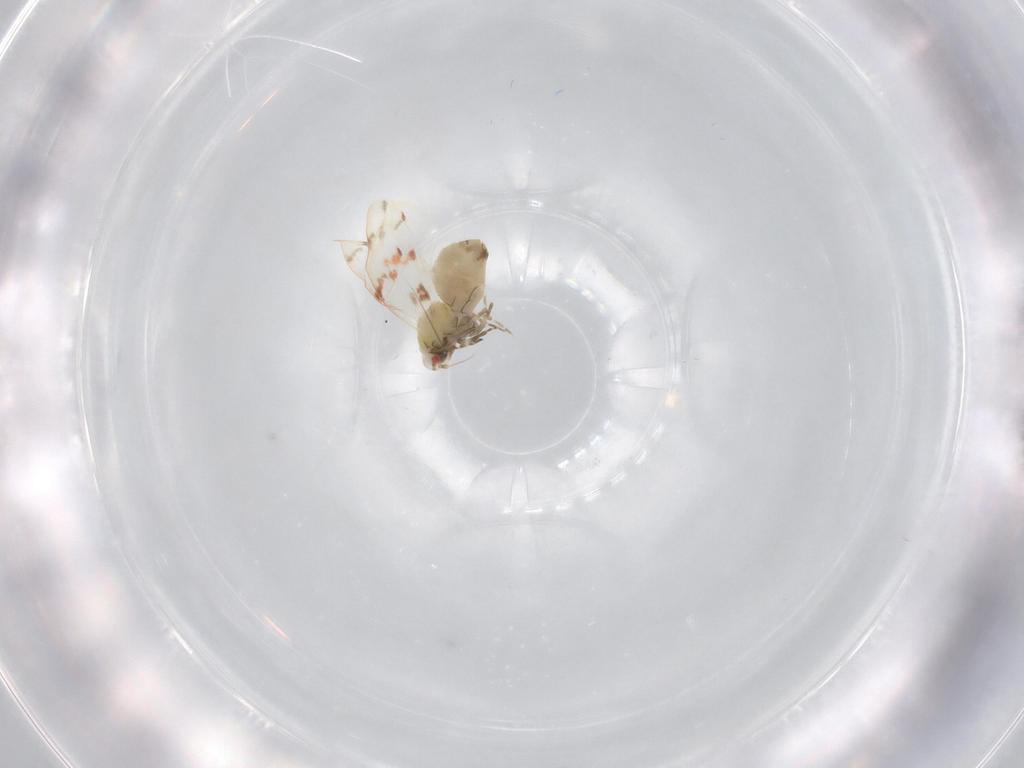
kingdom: Animalia
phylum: Arthropoda
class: Insecta
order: Hemiptera
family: Aleyrodidae
